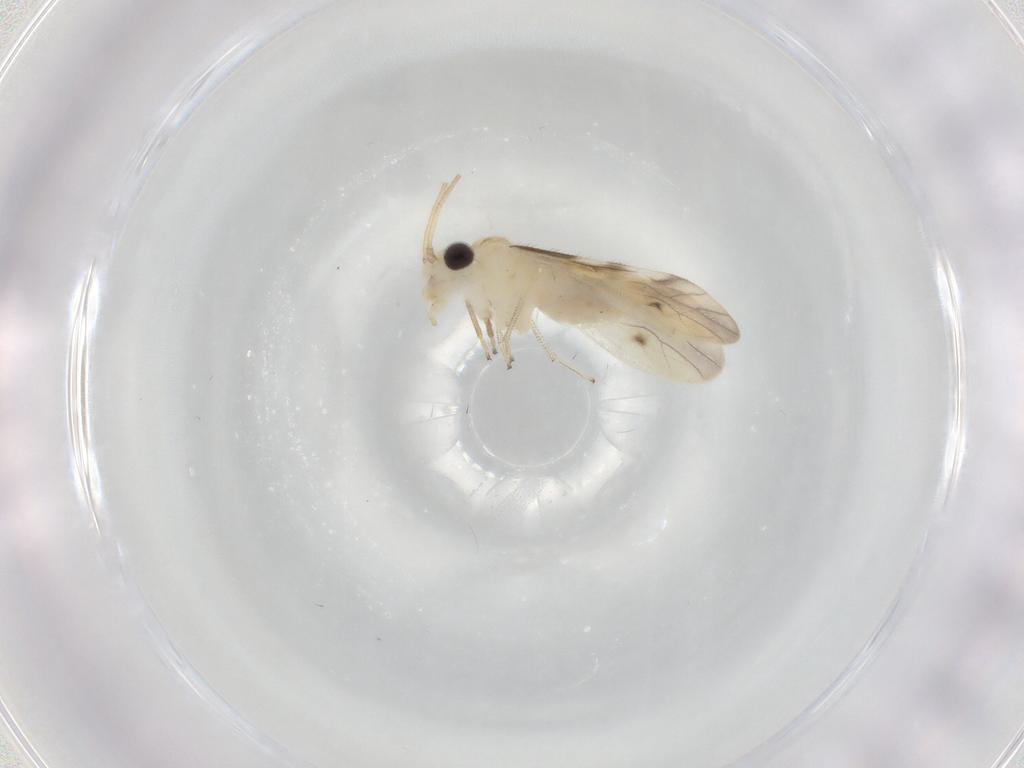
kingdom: Animalia
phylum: Arthropoda
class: Insecta
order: Psocodea
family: Caeciliusidae
